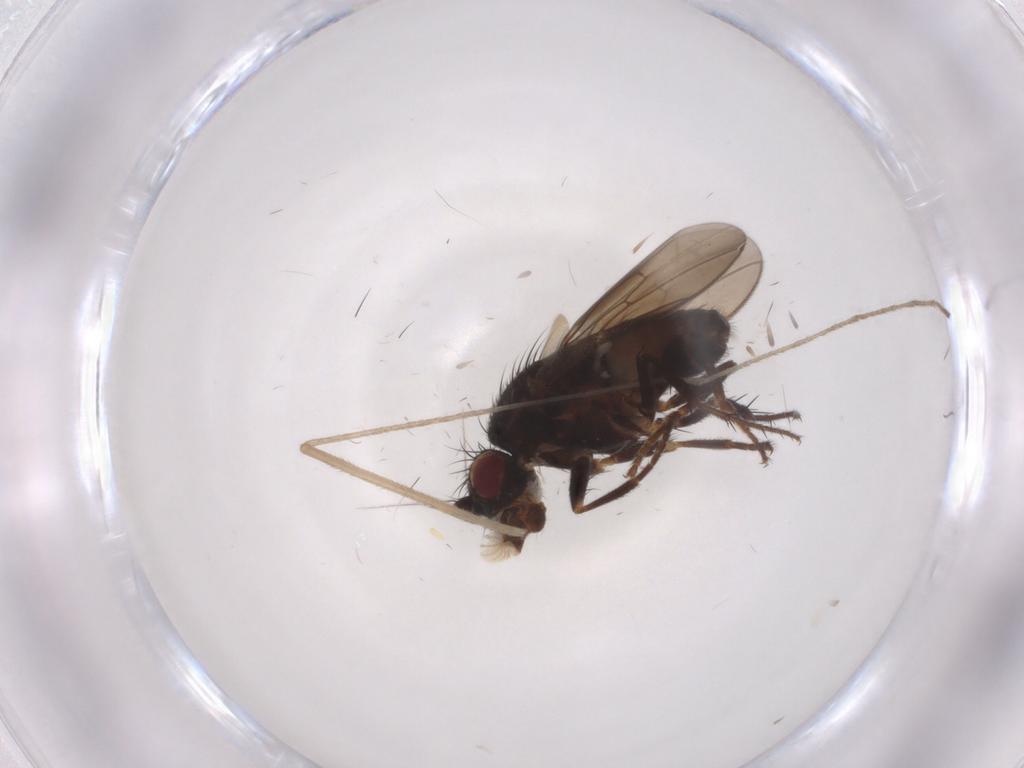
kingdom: Animalia
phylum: Arthropoda
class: Insecta
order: Diptera
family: Sphaeroceridae
